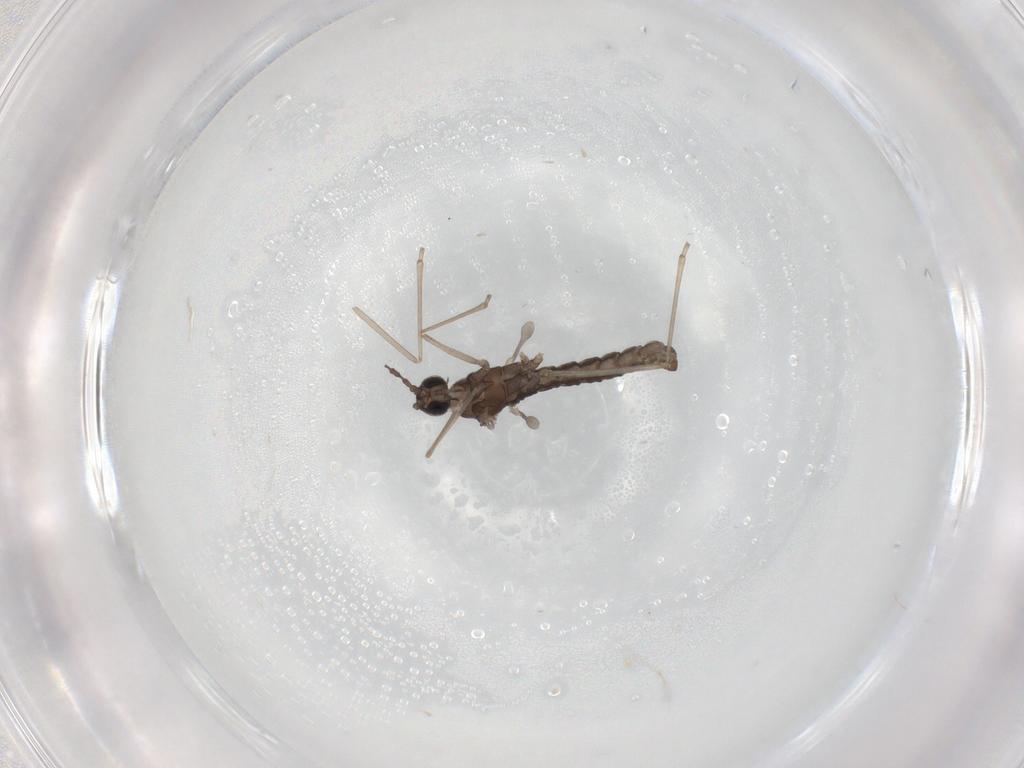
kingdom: Animalia
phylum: Arthropoda
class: Insecta
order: Diptera
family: Cecidomyiidae
